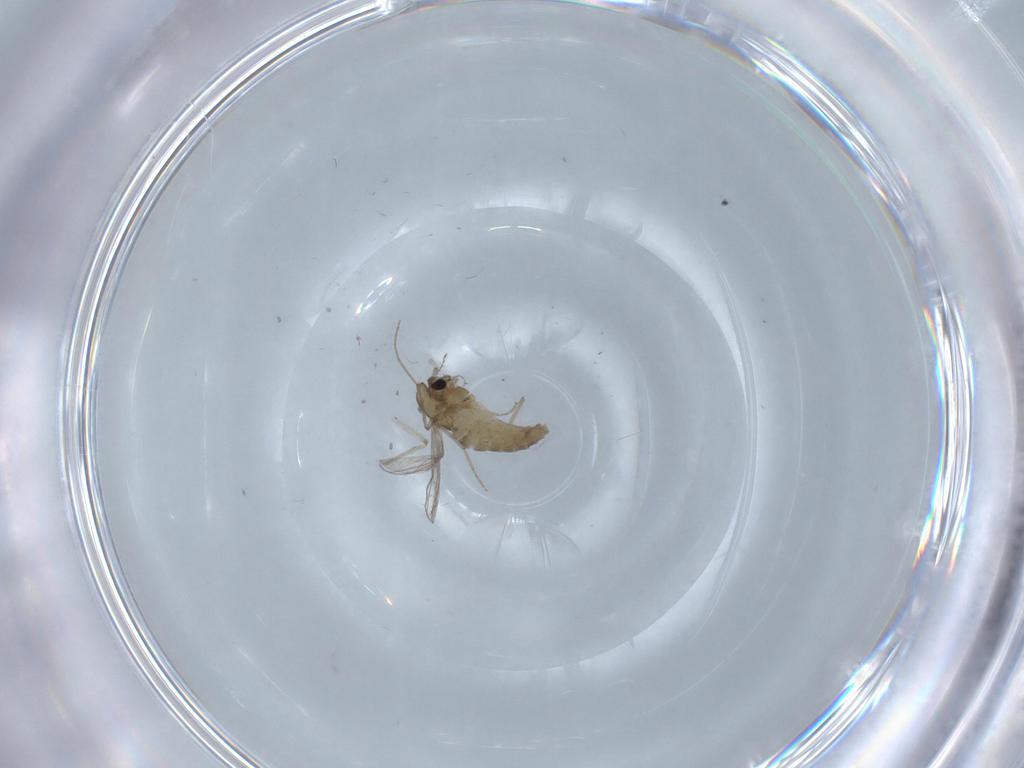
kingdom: Animalia
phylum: Arthropoda
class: Insecta
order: Diptera
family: Chironomidae
